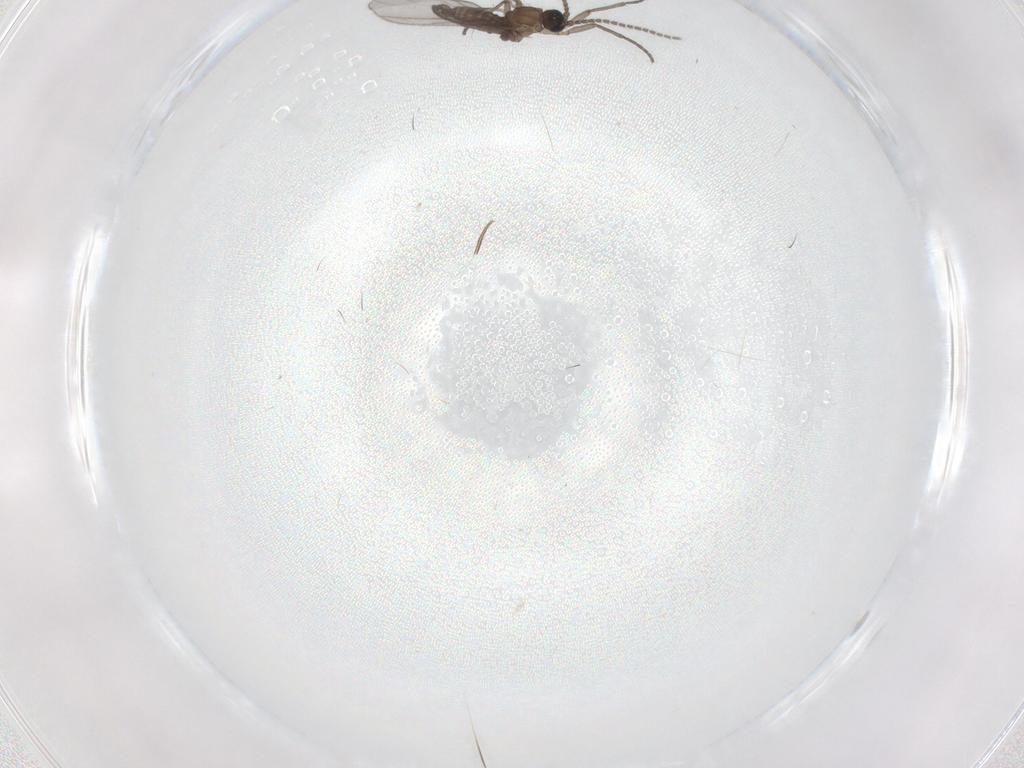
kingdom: Animalia
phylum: Arthropoda
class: Insecta
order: Diptera
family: Sciaridae
